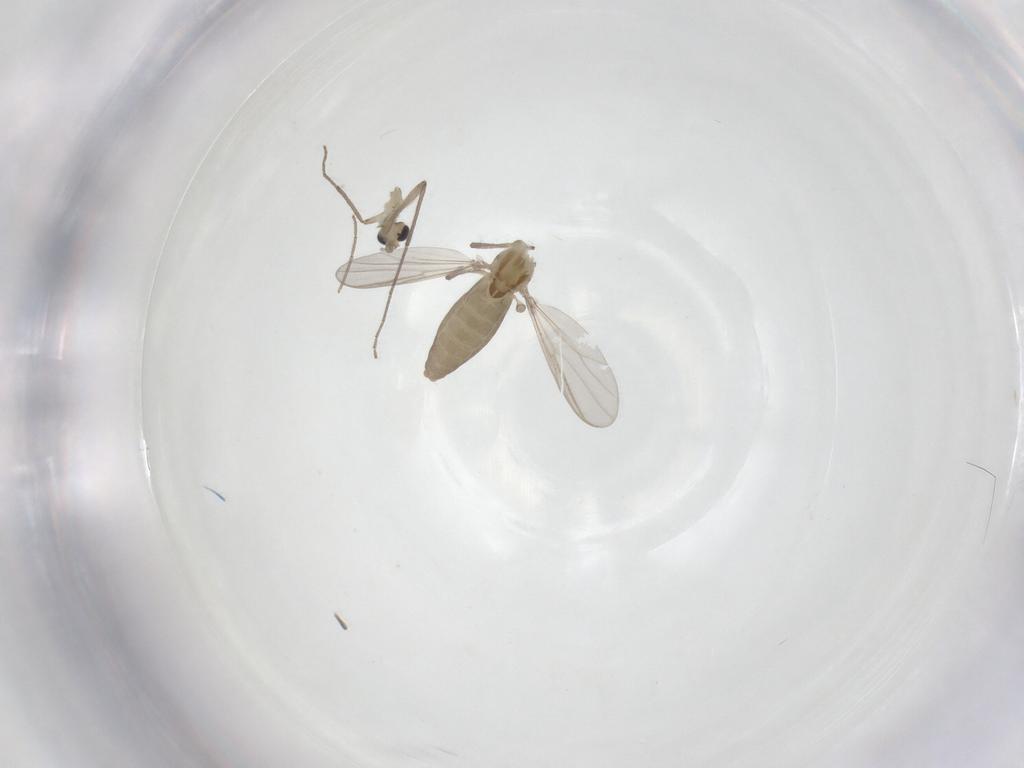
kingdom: Animalia
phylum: Arthropoda
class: Insecta
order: Diptera
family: Chironomidae
